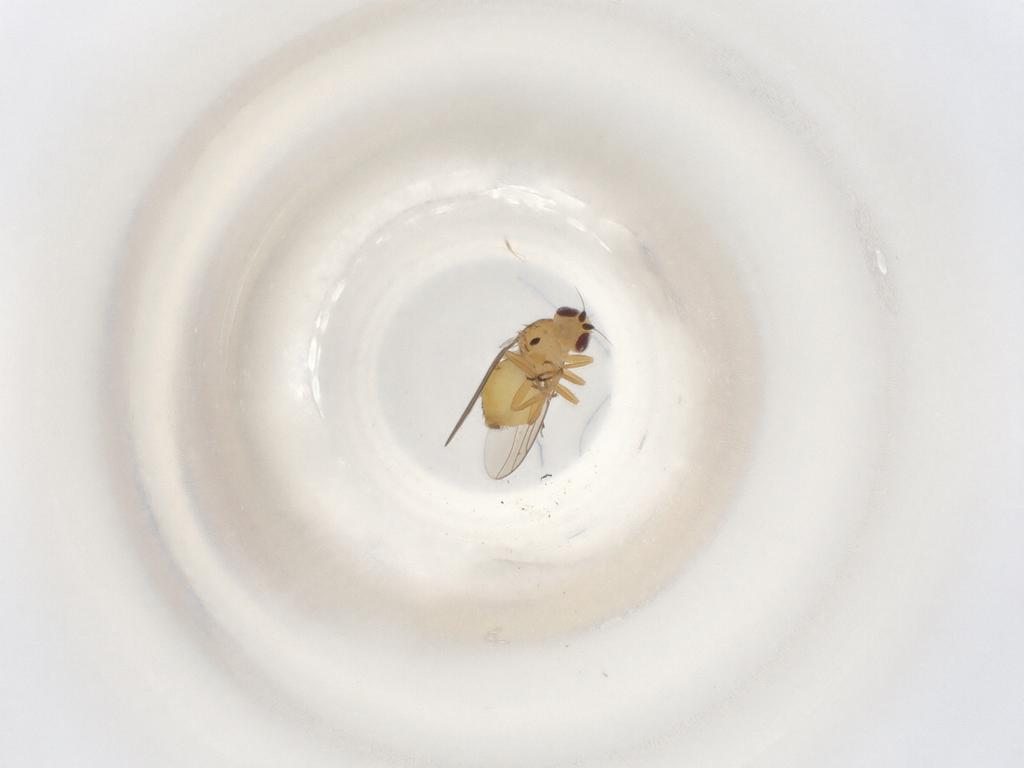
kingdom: Animalia
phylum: Arthropoda
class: Insecta
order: Diptera
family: Chloropidae
